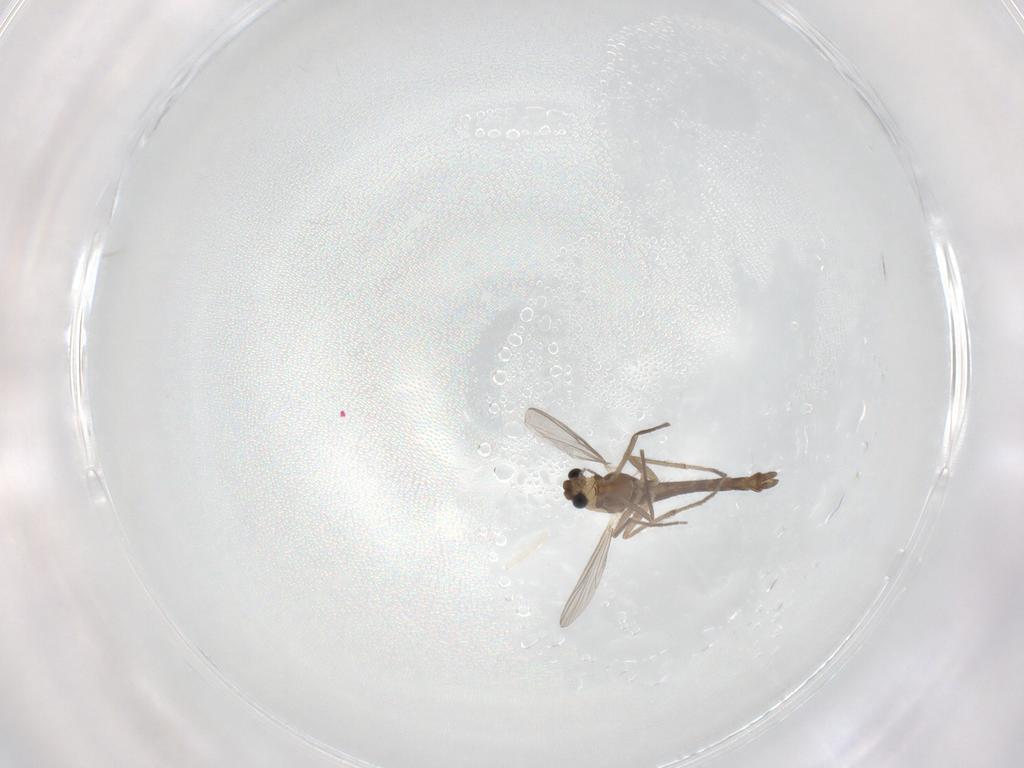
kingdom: Animalia
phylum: Arthropoda
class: Insecta
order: Diptera
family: Chironomidae
